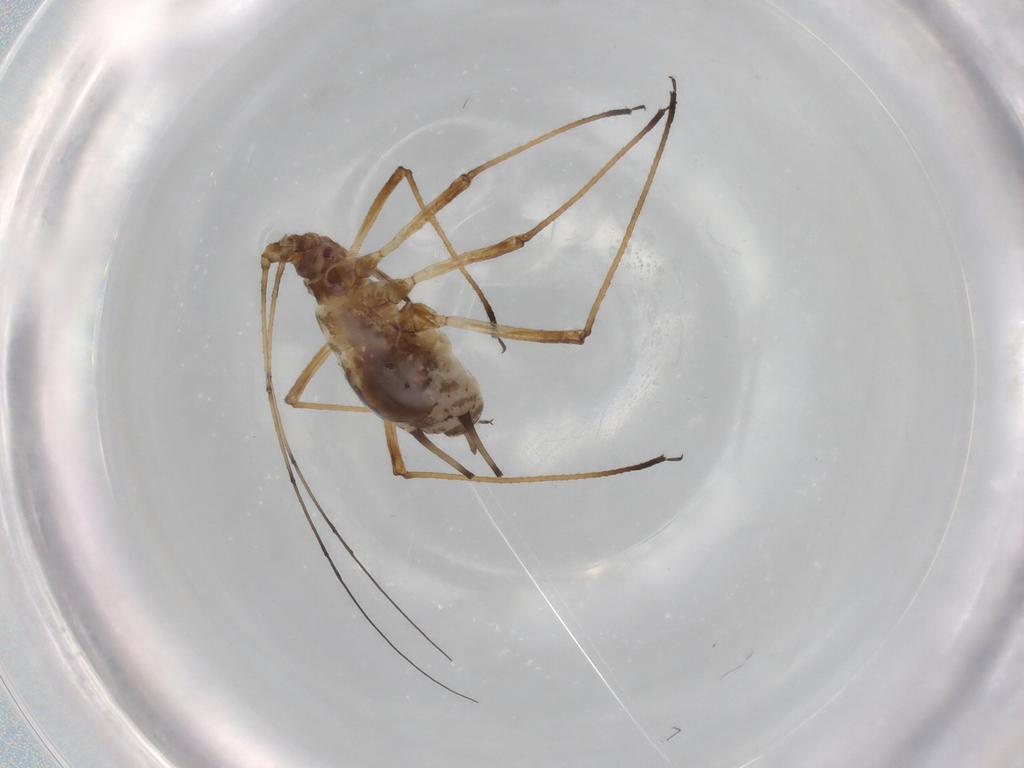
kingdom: Animalia
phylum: Arthropoda
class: Insecta
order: Hemiptera
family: Aphididae
